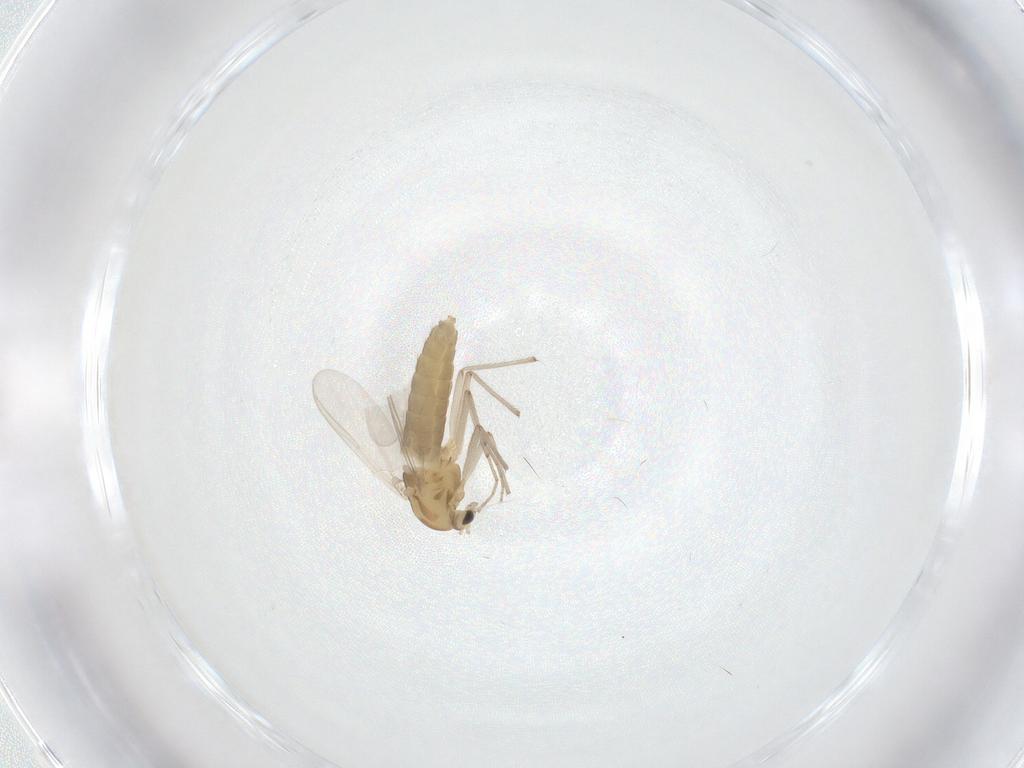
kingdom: Animalia
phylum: Arthropoda
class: Insecta
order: Diptera
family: Chironomidae
